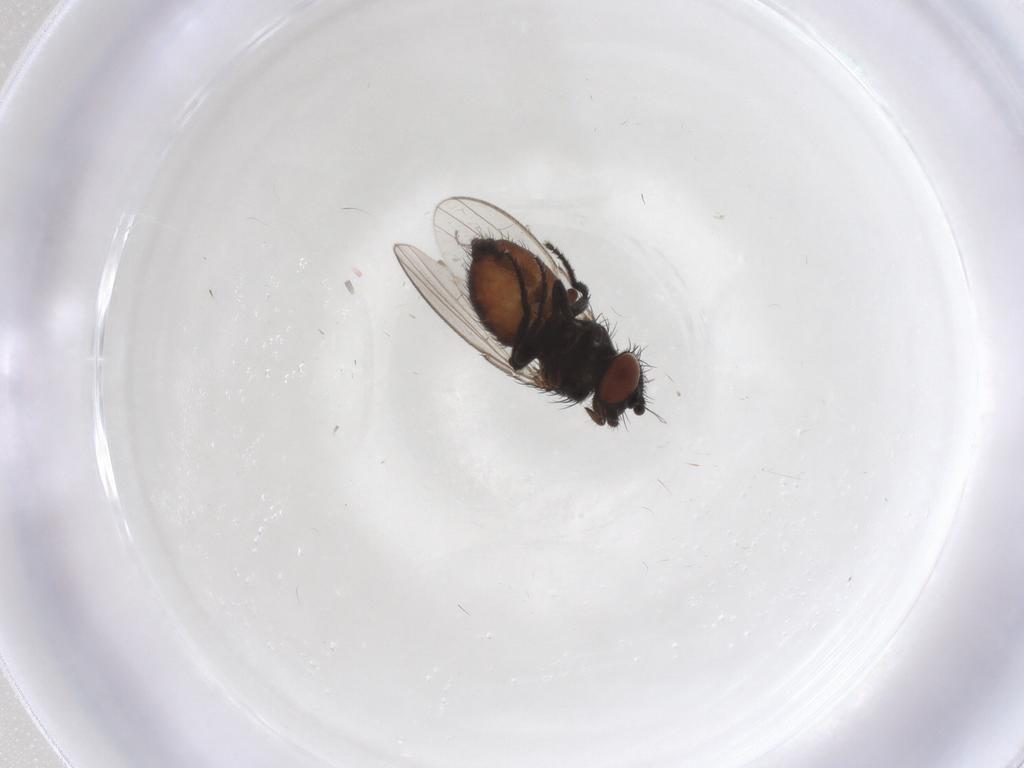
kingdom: Animalia
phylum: Arthropoda
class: Insecta
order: Diptera
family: Milichiidae
